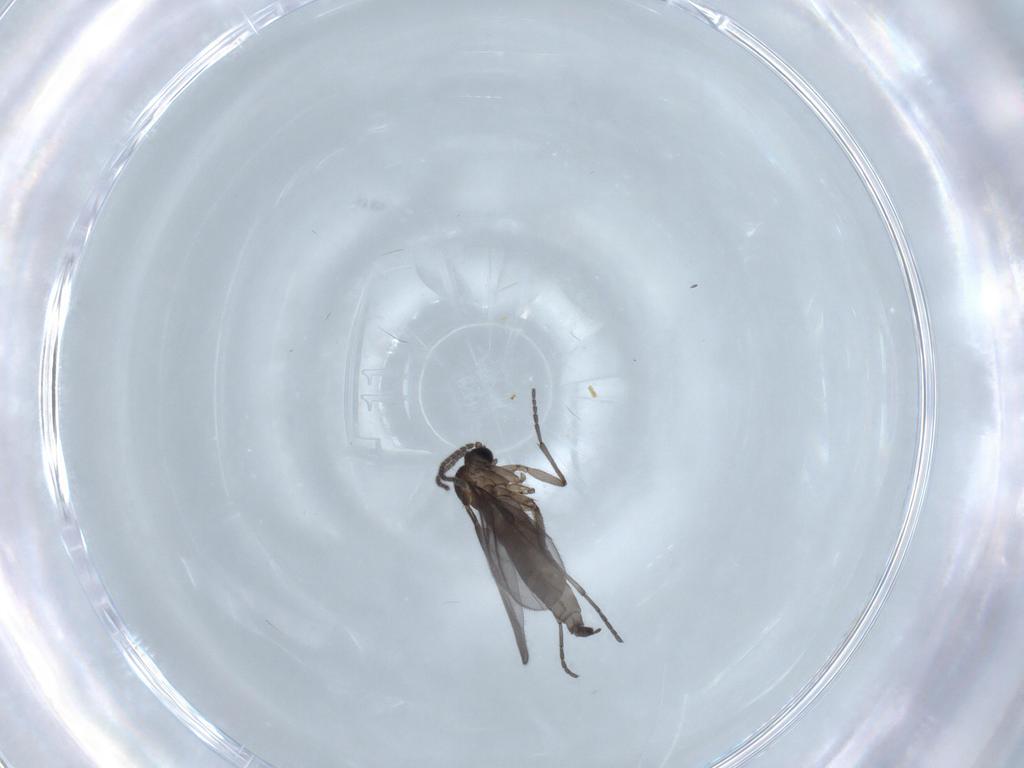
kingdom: Animalia
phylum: Arthropoda
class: Insecta
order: Diptera
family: Sciaridae
